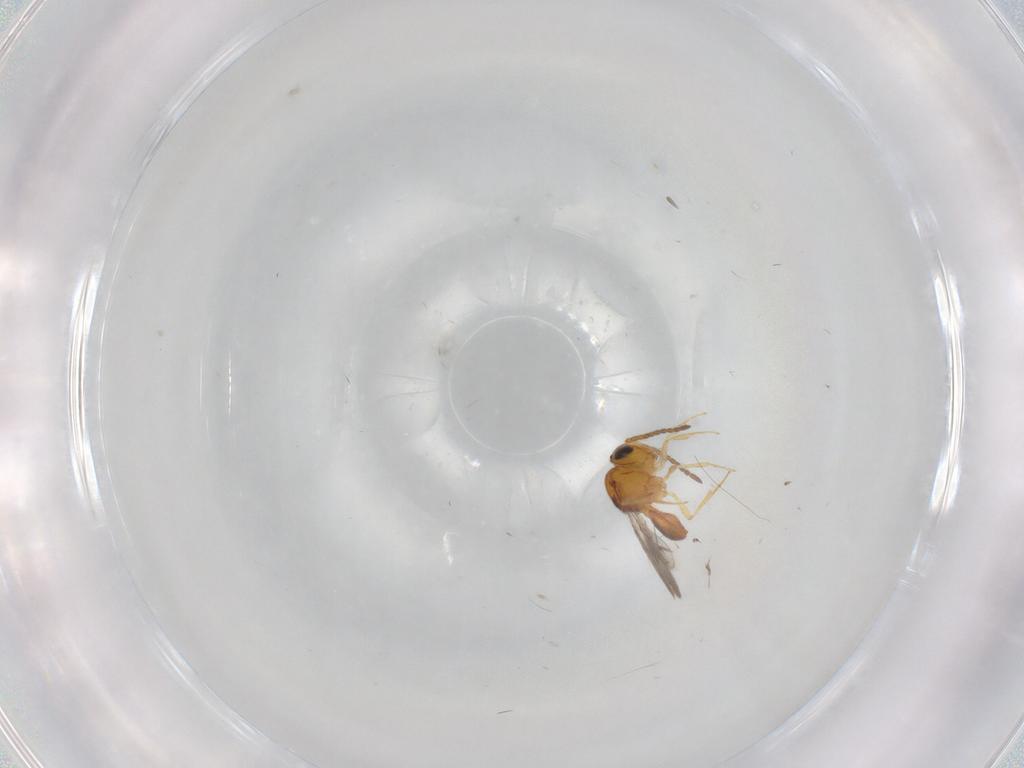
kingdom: Animalia
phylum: Arthropoda
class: Insecta
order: Hymenoptera
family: Scelionidae
